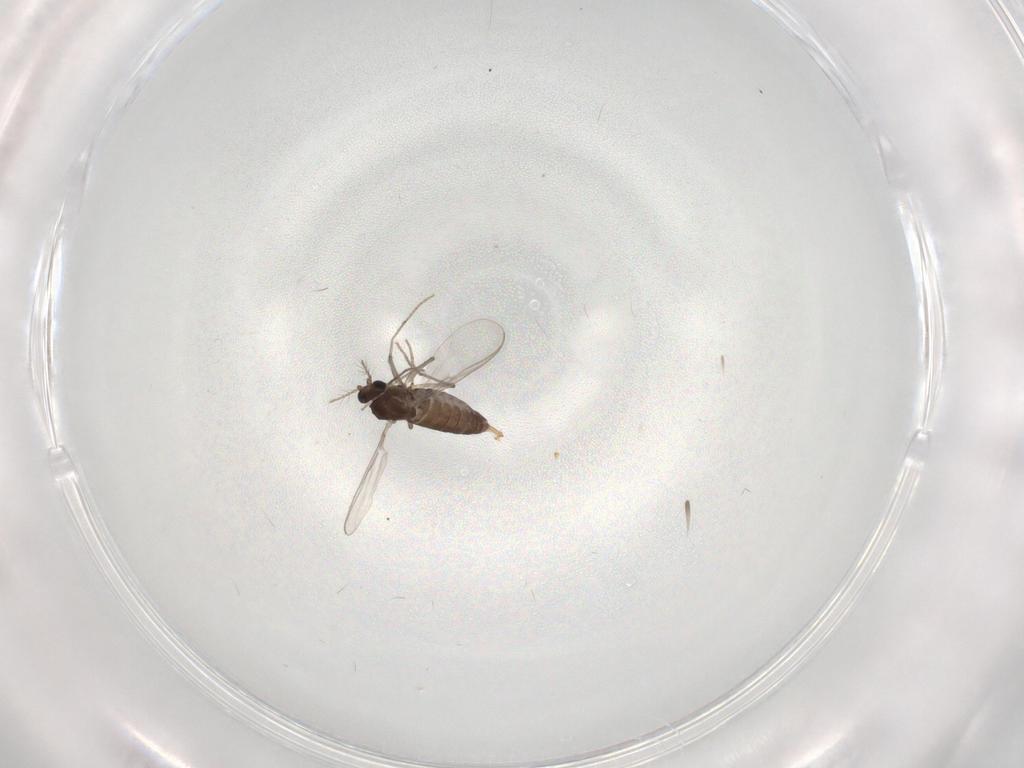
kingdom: Animalia
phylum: Arthropoda
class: Insecta
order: Diptera
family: Chironomidae
